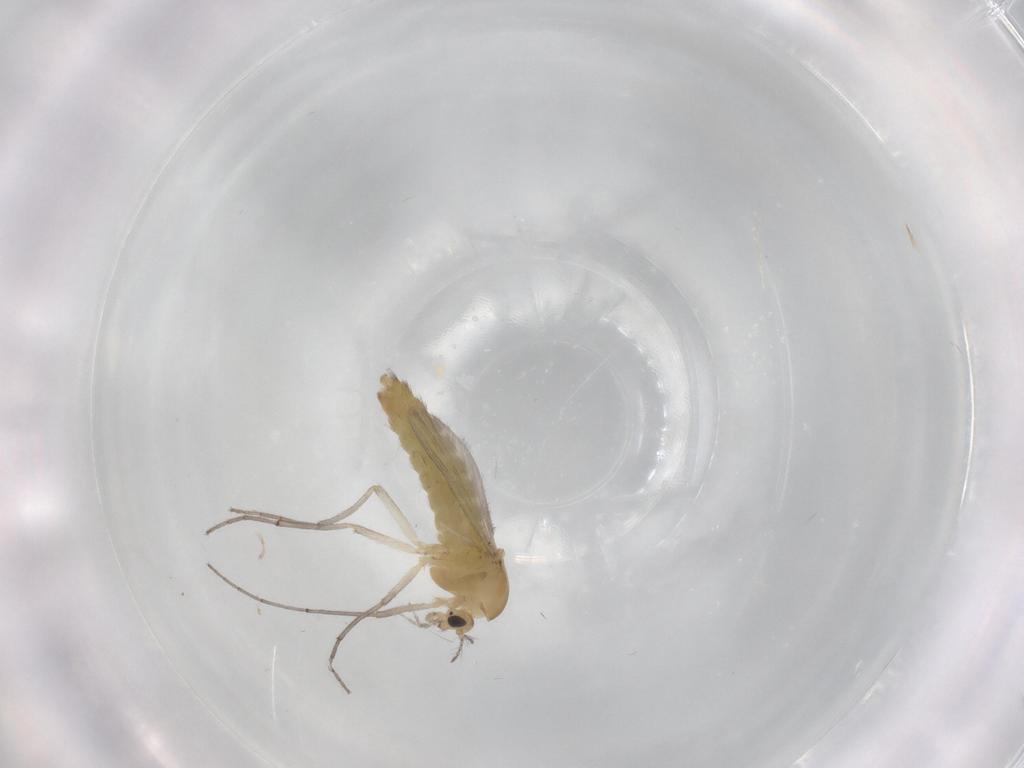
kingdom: Animalia
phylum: Arthropoda
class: Insecta
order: Diptera
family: Chironomidae
